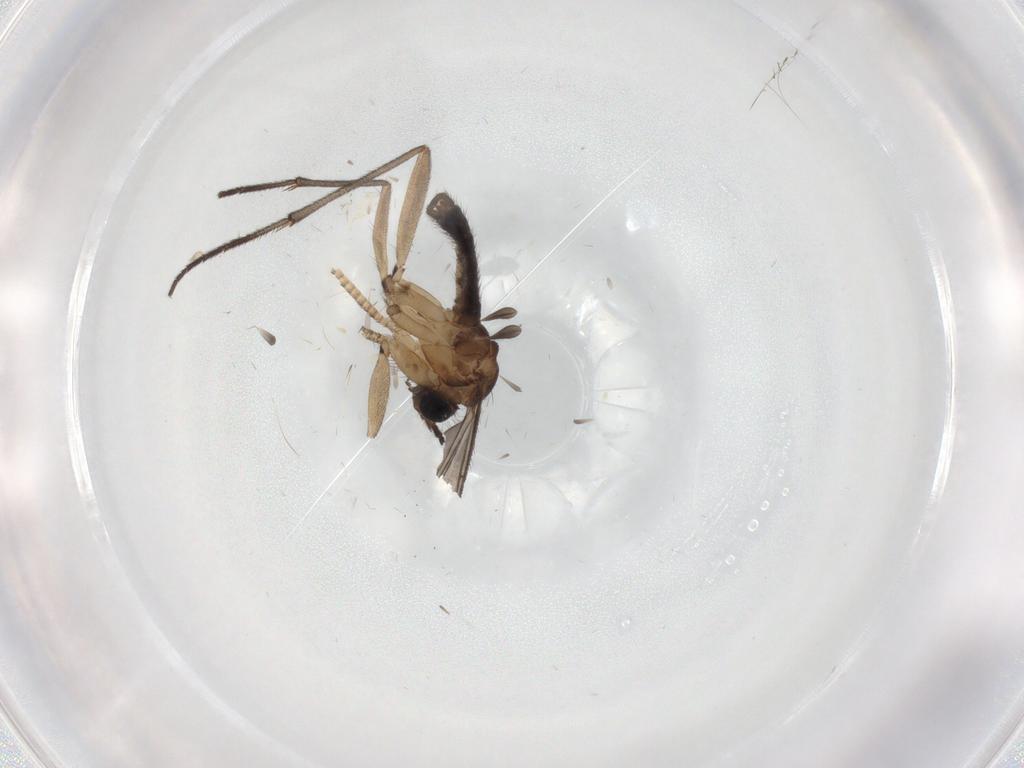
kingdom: Animalia
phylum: Arthropoda
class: Insecta
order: Diptera
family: Sciaridae
